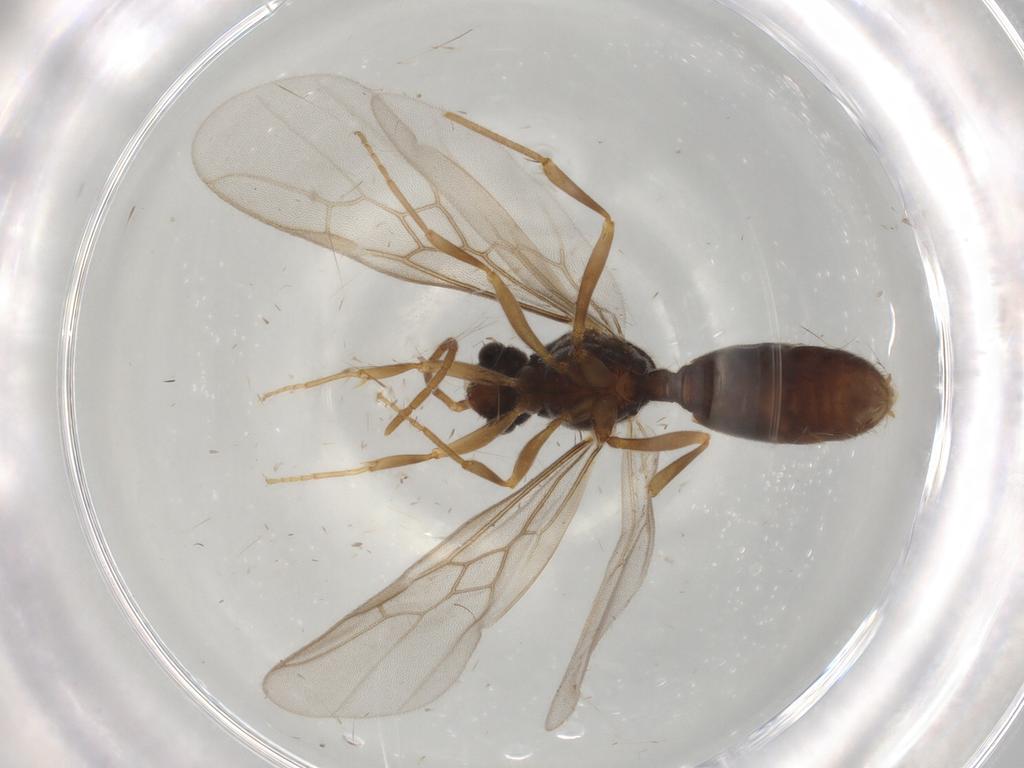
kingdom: Animalia
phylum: Arthropoda
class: Insecta
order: Hymenoptera
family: Formicidae
